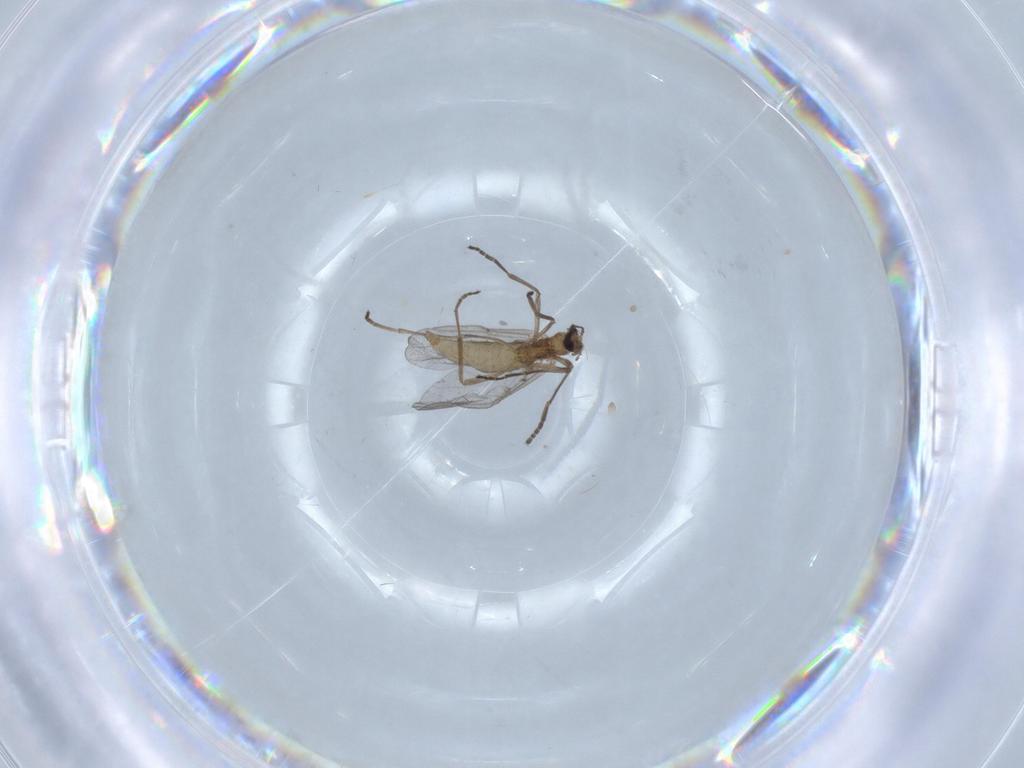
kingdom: Animalia
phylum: Arthropoda
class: Insecta
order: Diptera
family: Cecidomyiidae
